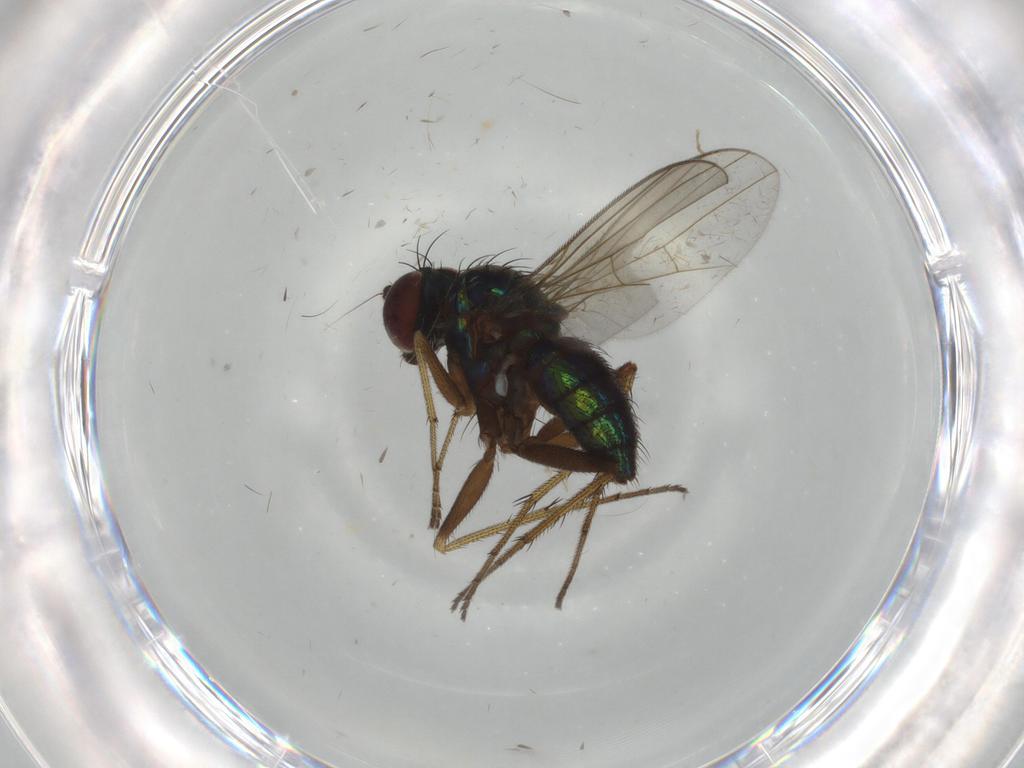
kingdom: Animalia
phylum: Arthropoda
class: Insecta
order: Diptera
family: Dolichopodidae
